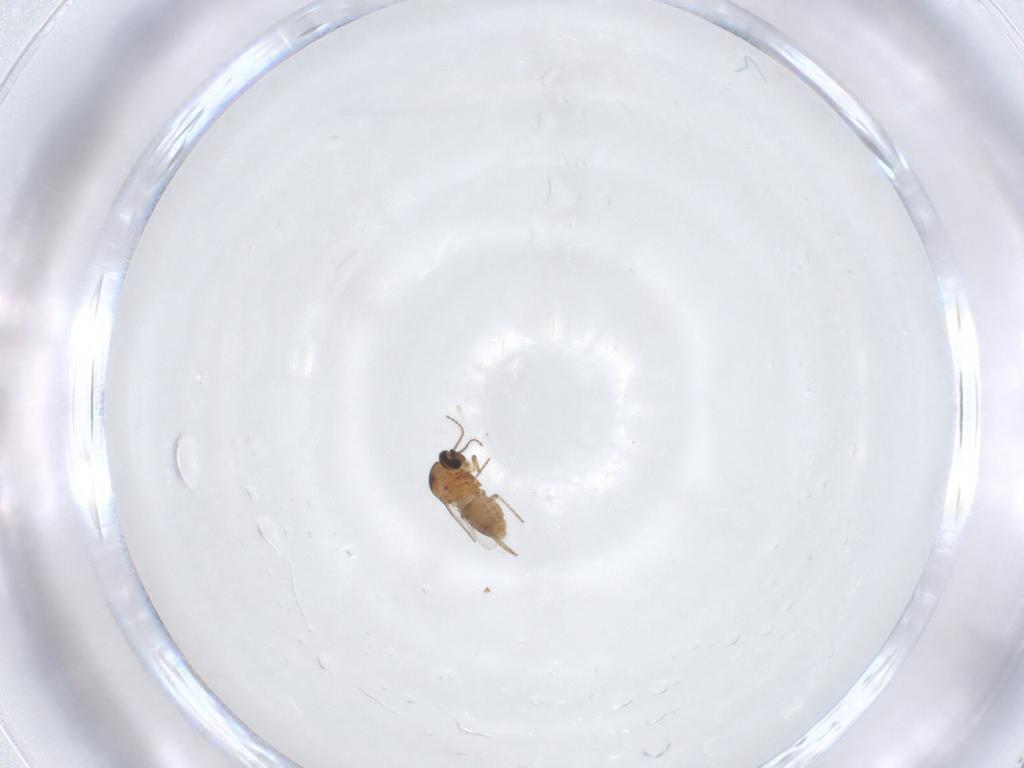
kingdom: Animalia
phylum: Arthropoda
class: Insecta
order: Diptera
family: Ceratopogonidae
